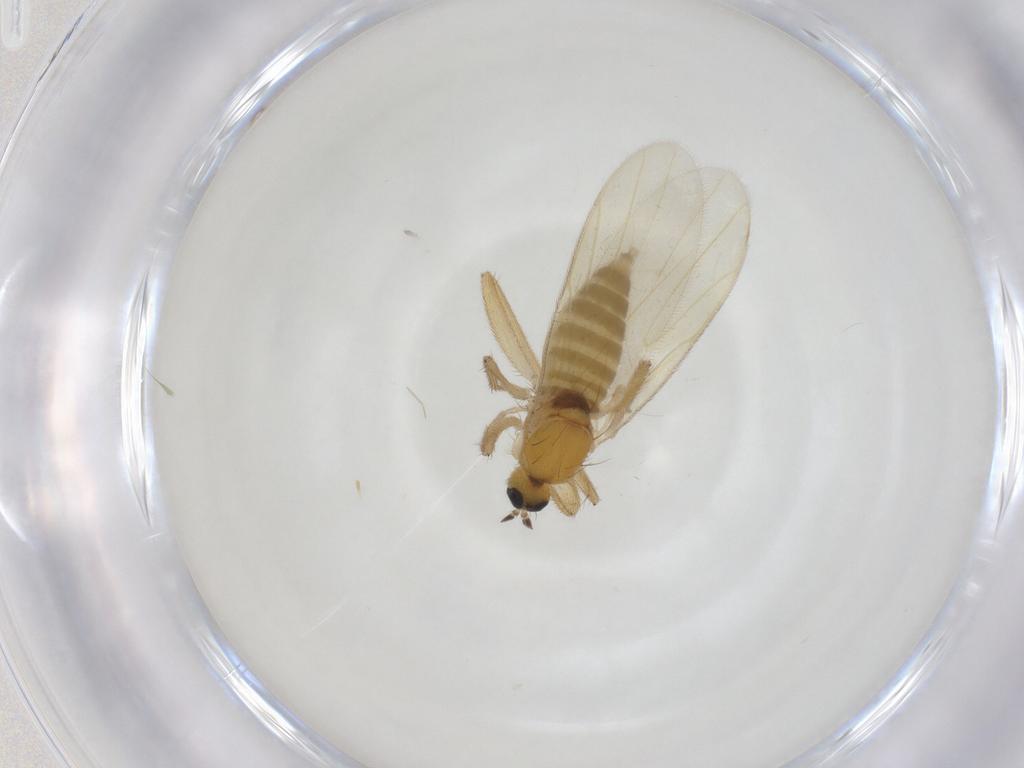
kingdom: Animalia
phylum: Arthropoda
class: Insecta
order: Diptera
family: Hybotidae
